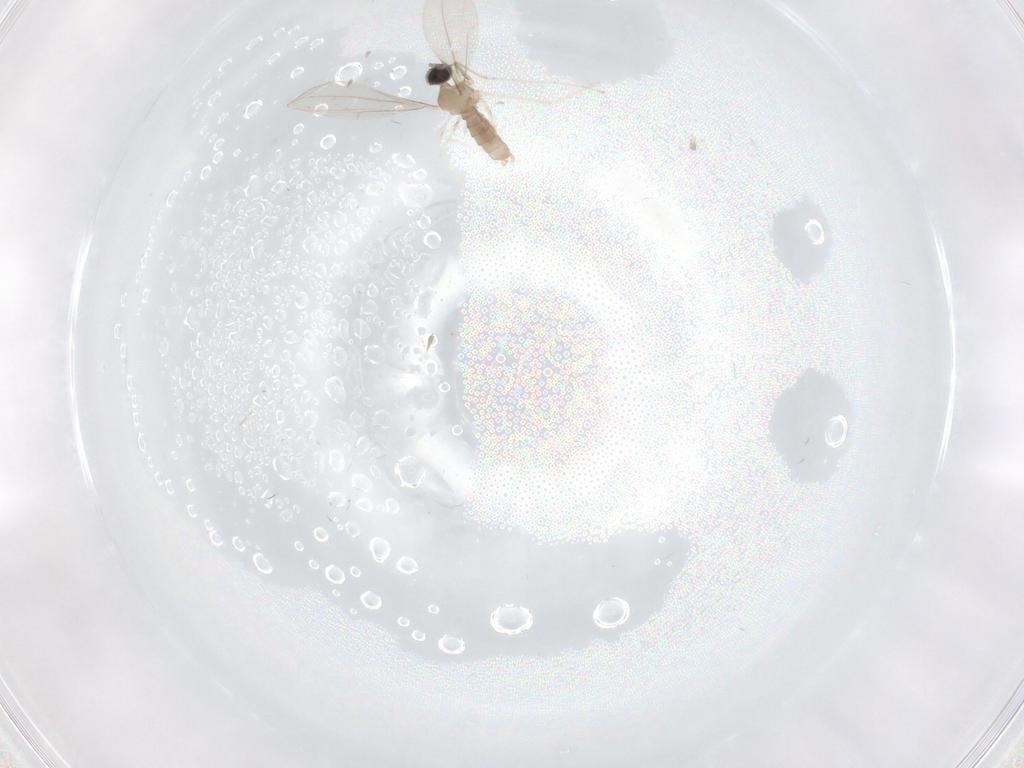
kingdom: Animalia
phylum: Arthropoda
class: Insecta
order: Diptera
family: Cecidomyiidae
